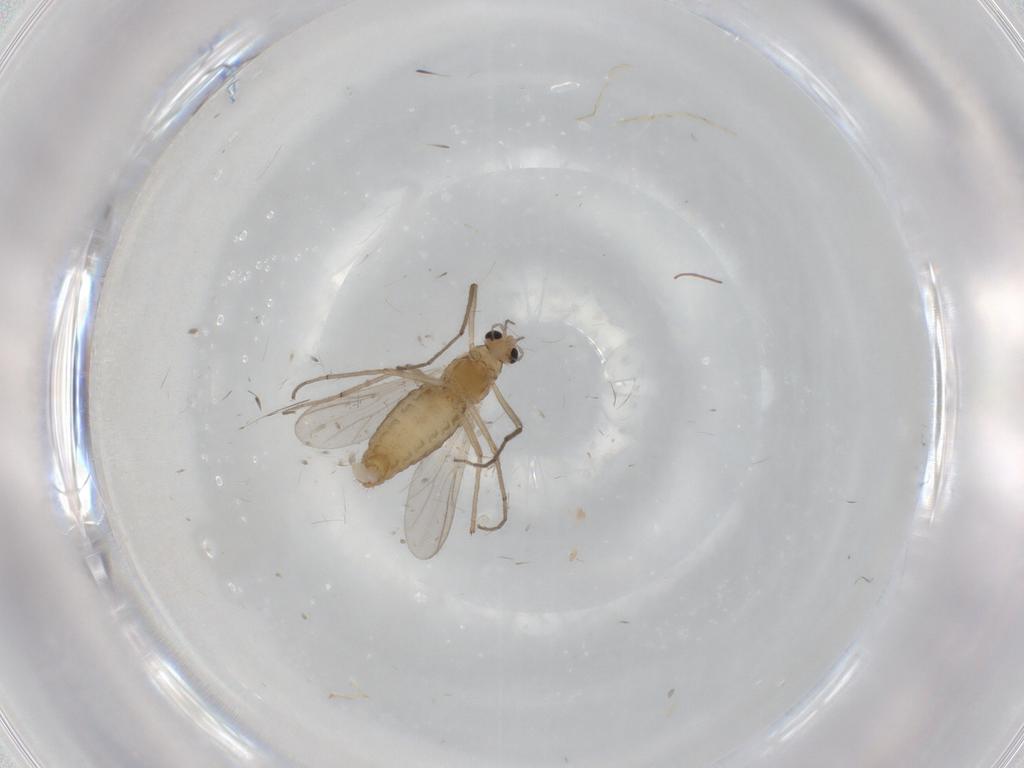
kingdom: Animalia
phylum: Arthropoda
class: Insecta
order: Diptera
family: Chironomidae
